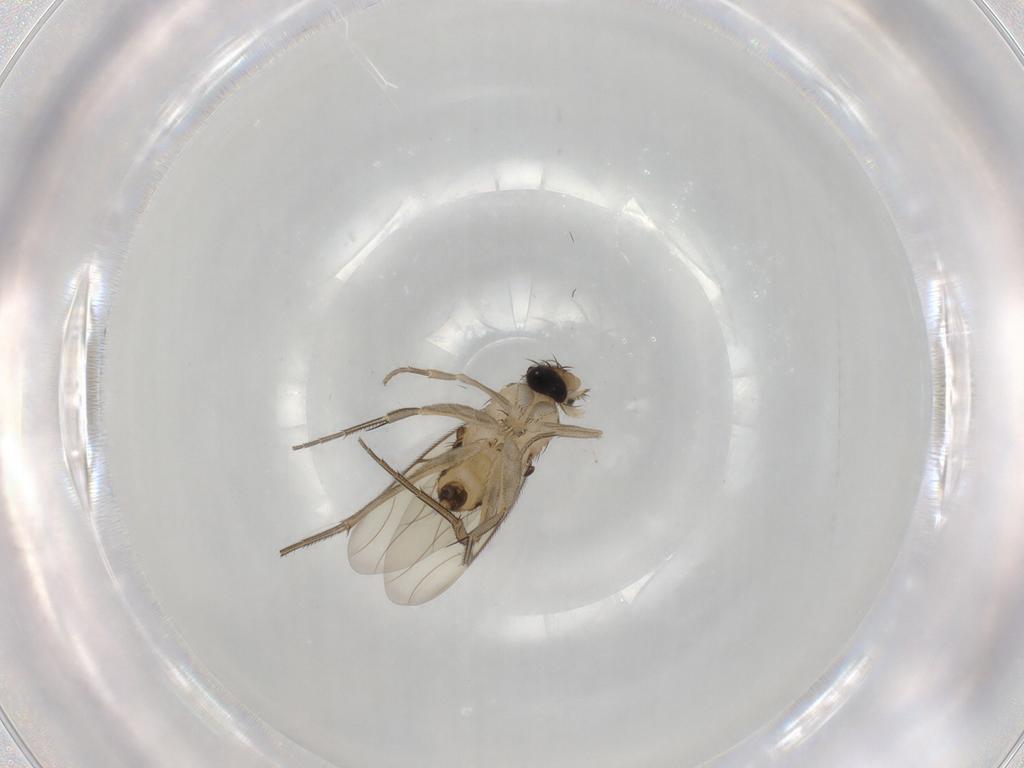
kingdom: Animalia
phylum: Arthropoda
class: Insecta
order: Diptera
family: Cecidomyiidae
